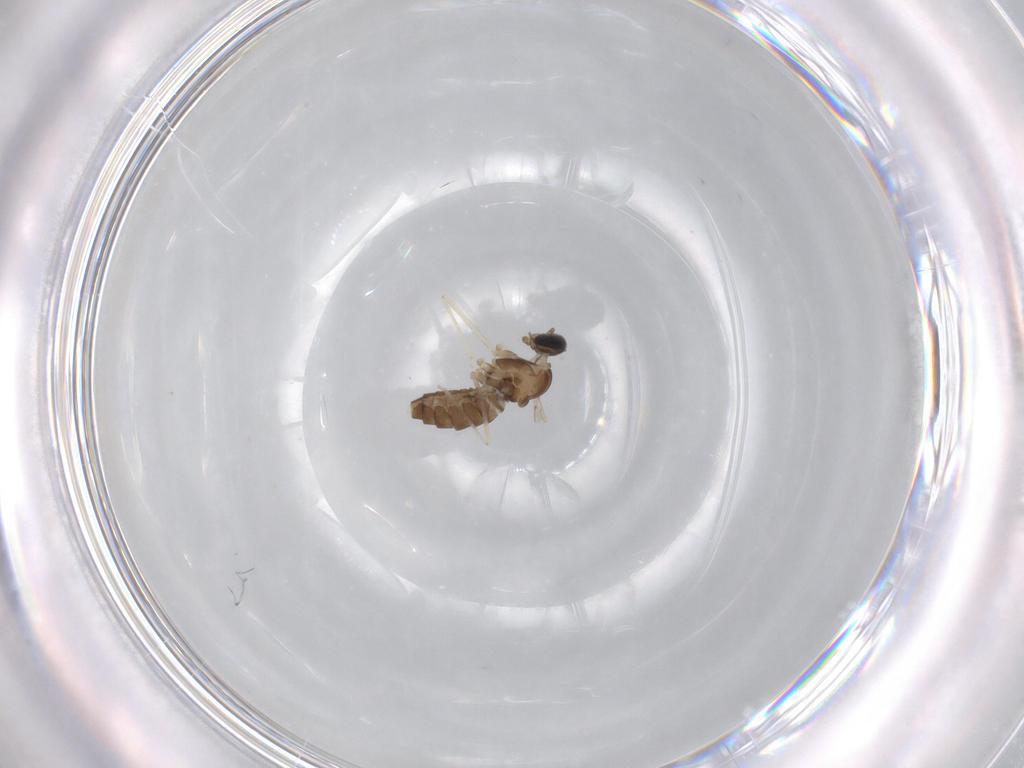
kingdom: Animalia
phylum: Arthropoda
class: Insecta
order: Diptera
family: Cecidomyiidae
